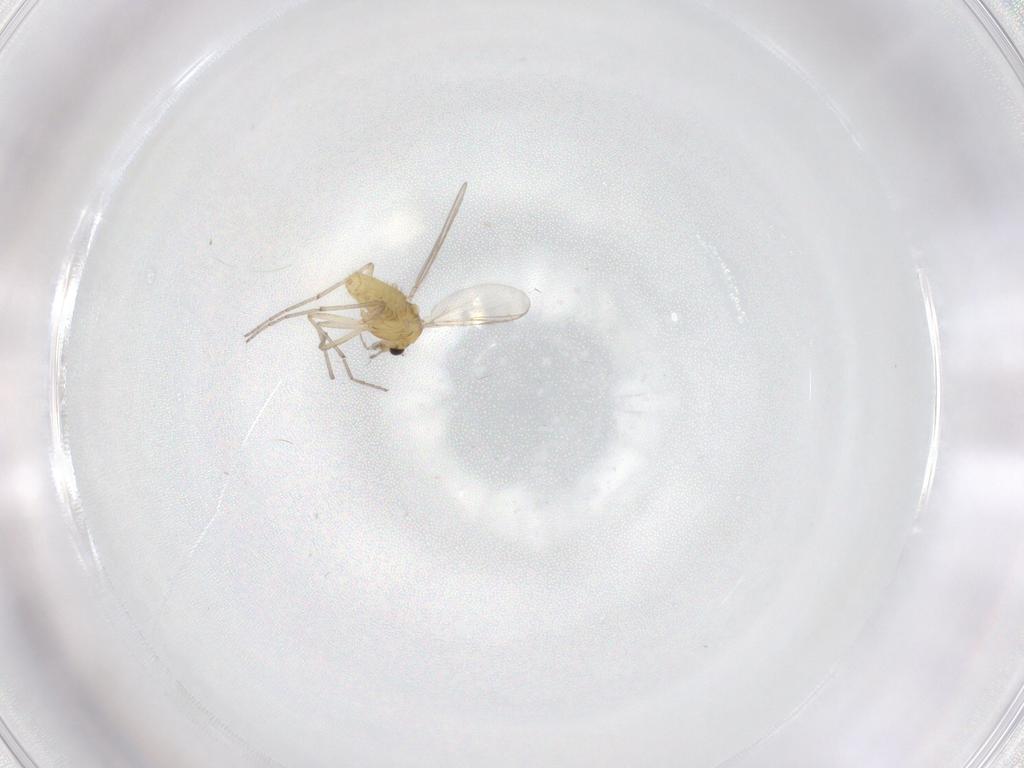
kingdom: Animalia
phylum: Arthropoda
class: Insecta
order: Diptera
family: Chironomidae
